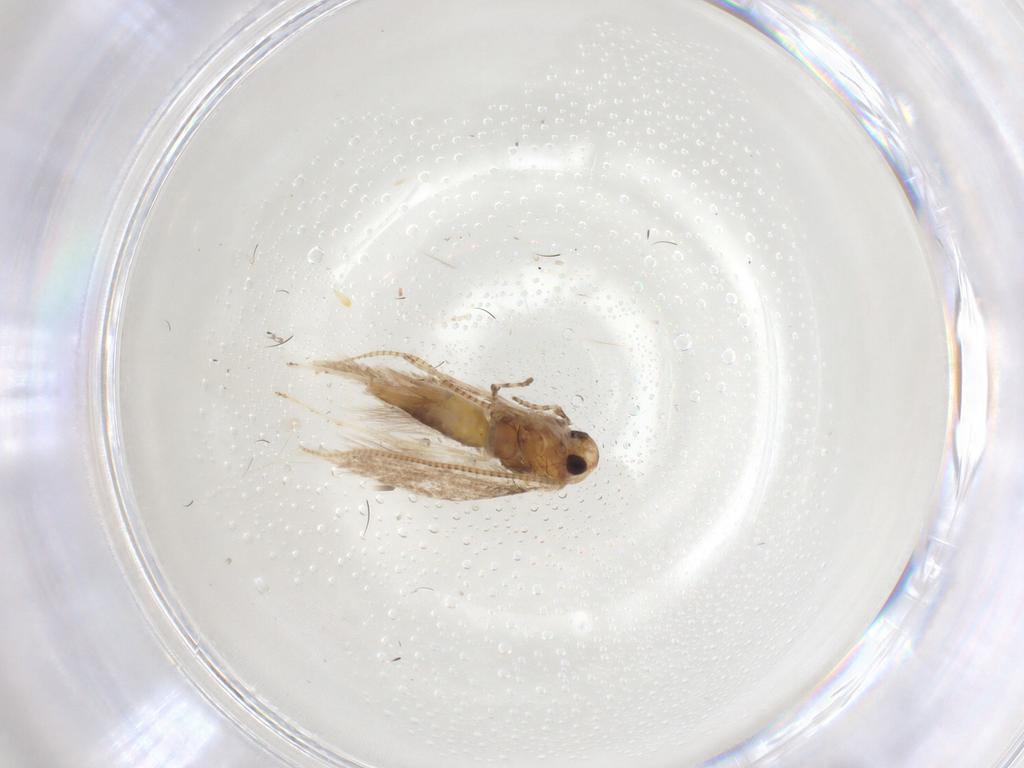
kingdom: Animalia
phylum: Arthropoda
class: Insecta
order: Lepidoptera
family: Gracillariidae
